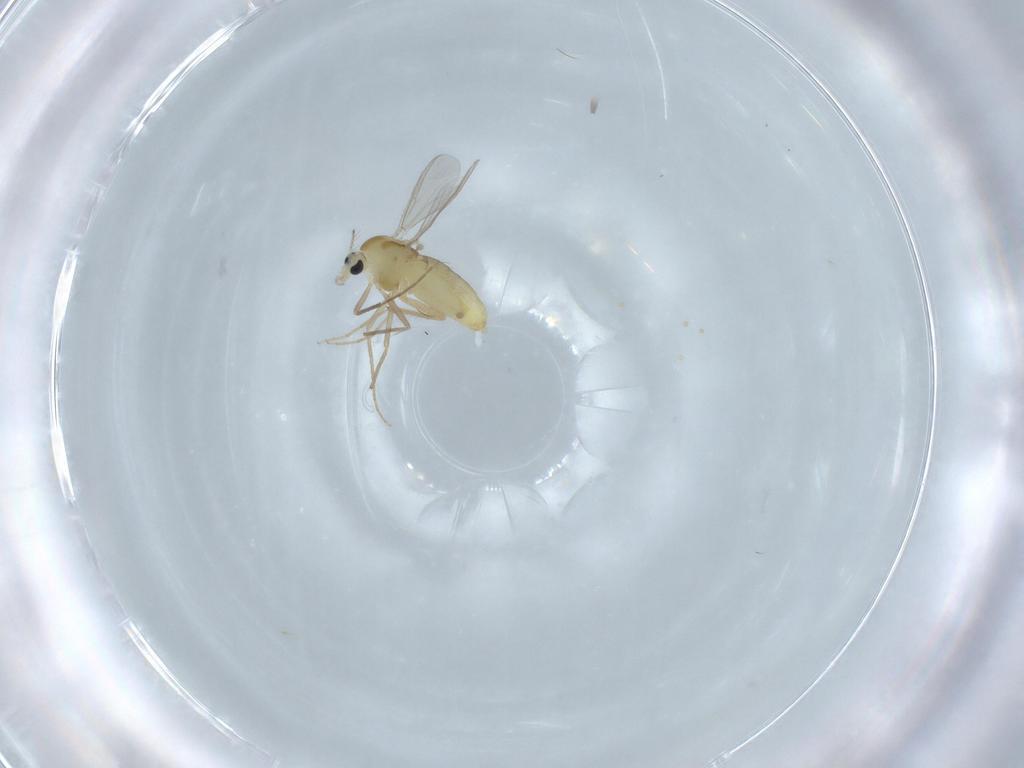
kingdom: Animalia
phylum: Arthropoda
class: Insecta
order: Diptera
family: Chironomidae
